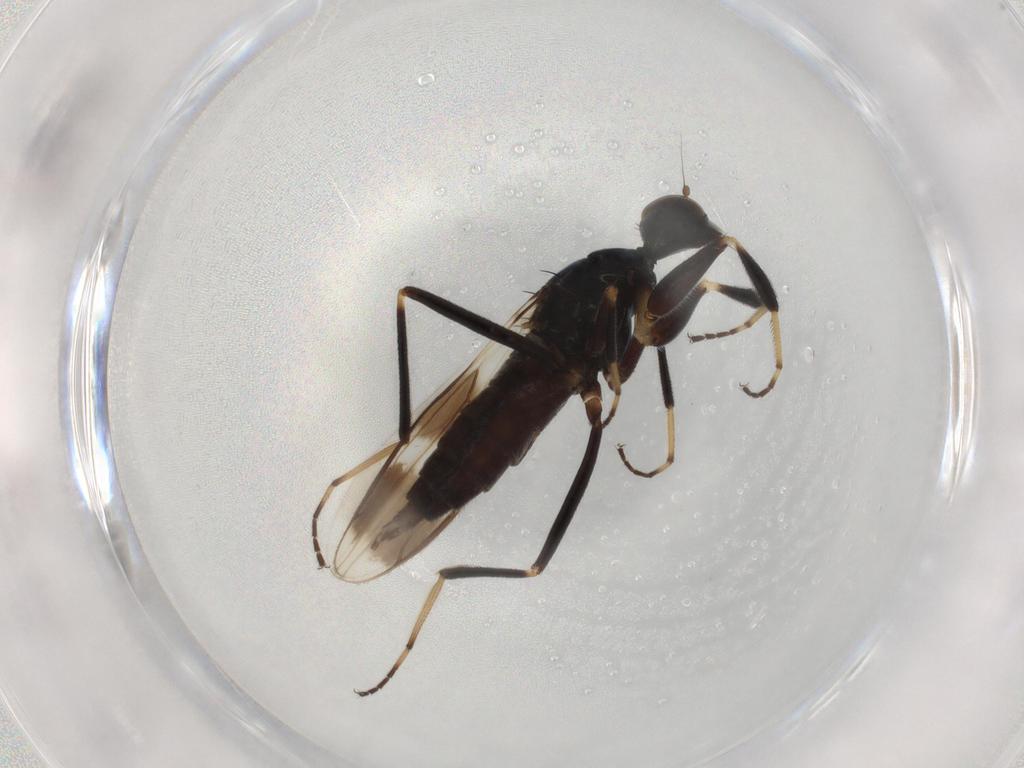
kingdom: Animalia
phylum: Arthropoda
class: Insecta
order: Diptera
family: Hybotidae
